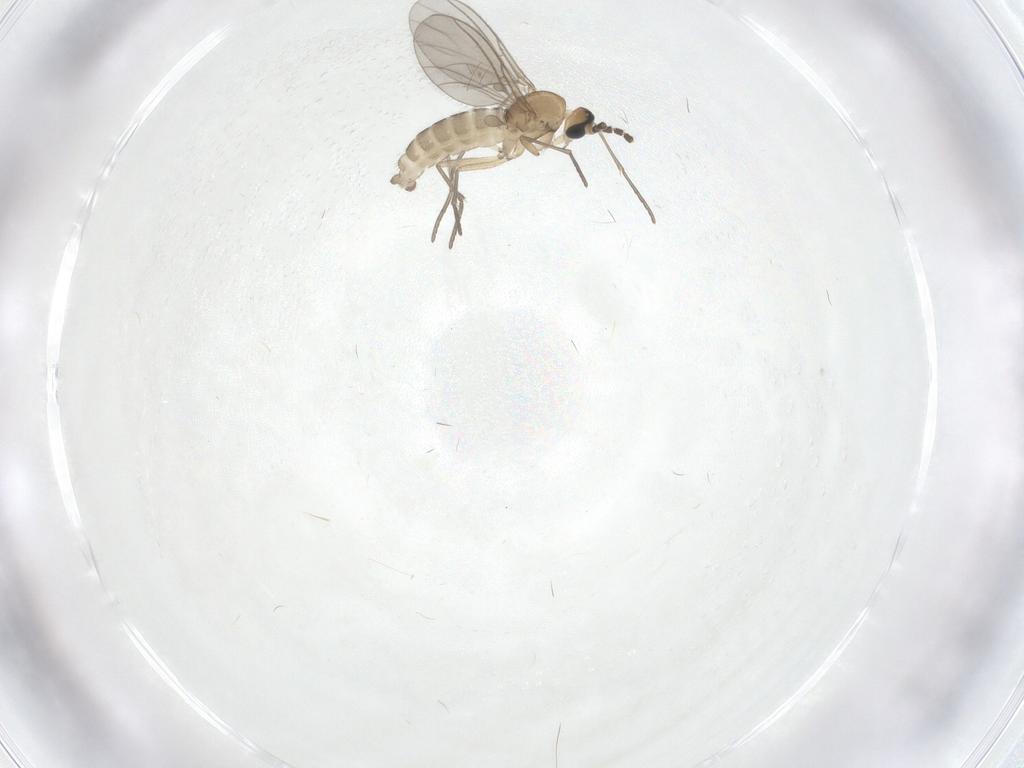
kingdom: Animalia
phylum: Arthropoda
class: Insecta
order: Diptera
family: Sciaridae
